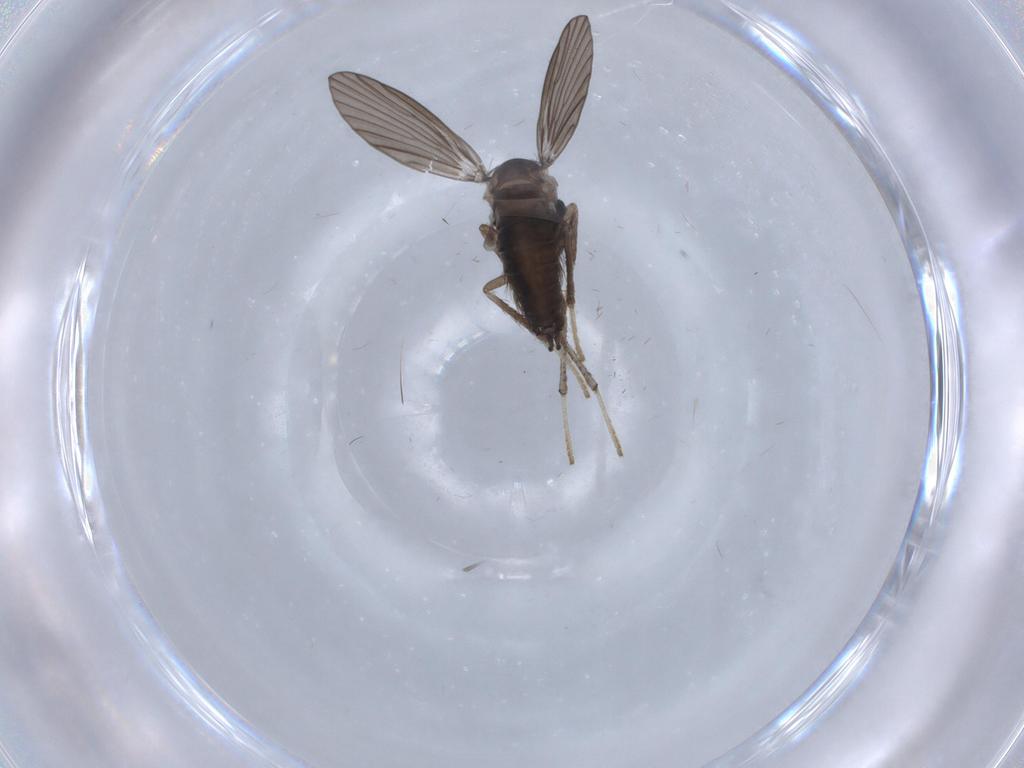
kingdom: Animalia
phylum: Arthropoda
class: Insecta
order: Diptera
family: Psychodidae
